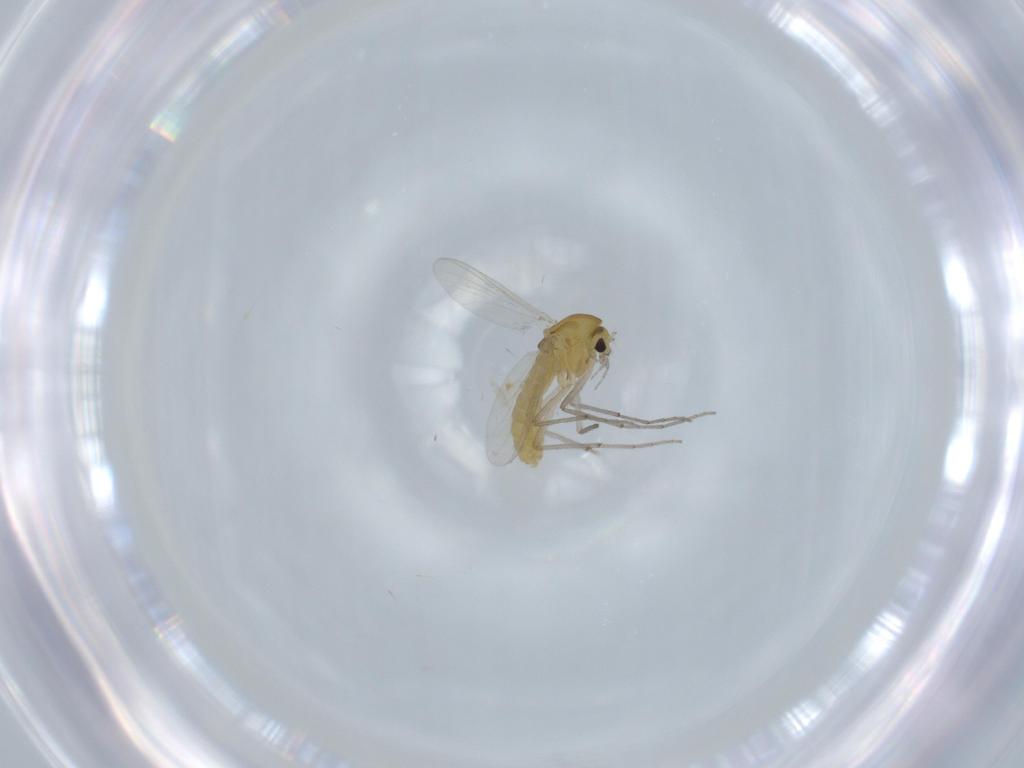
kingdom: Animalia
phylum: Arthropoda
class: Insecta
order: Diptera
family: Chironomidae
